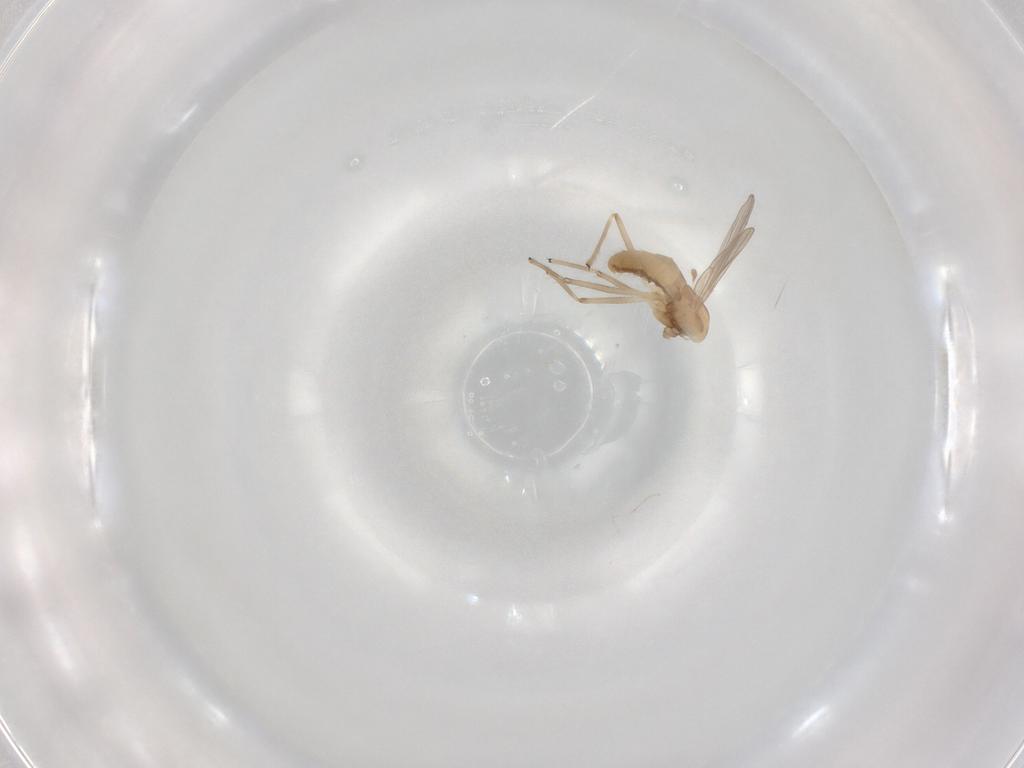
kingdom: Animalia
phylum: Arthropoda
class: Insecta
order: Diptera
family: Chironomidae
